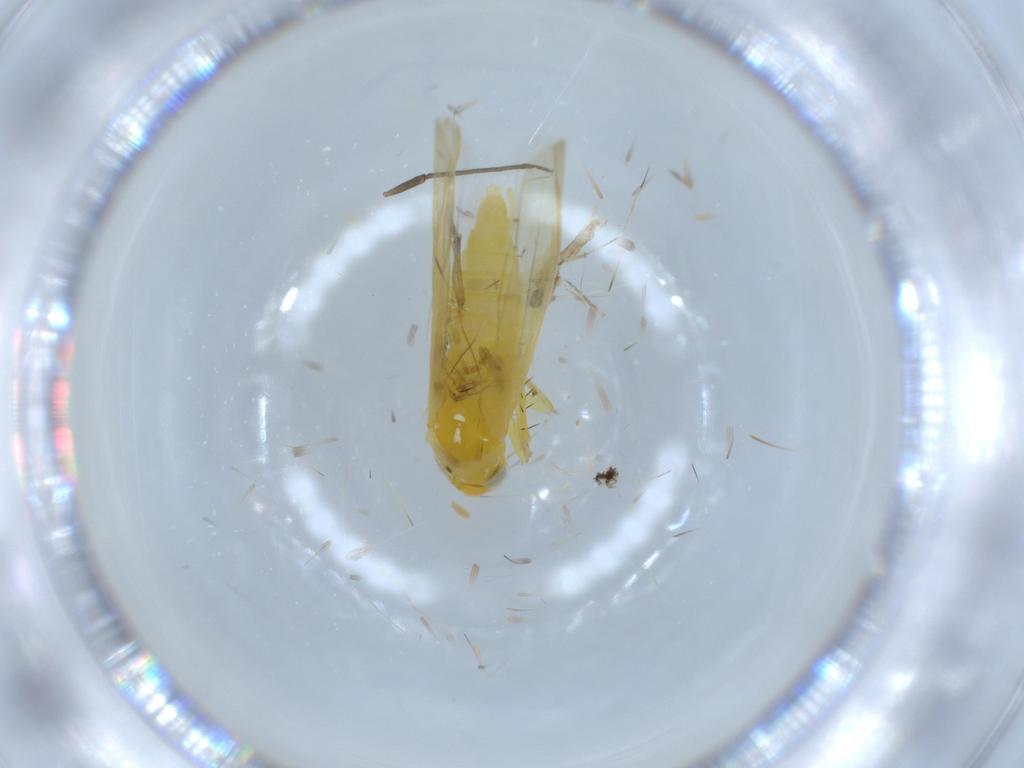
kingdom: Animalia
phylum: Arthropoda
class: Insecta
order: Hemiptera
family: Cicadellidae
